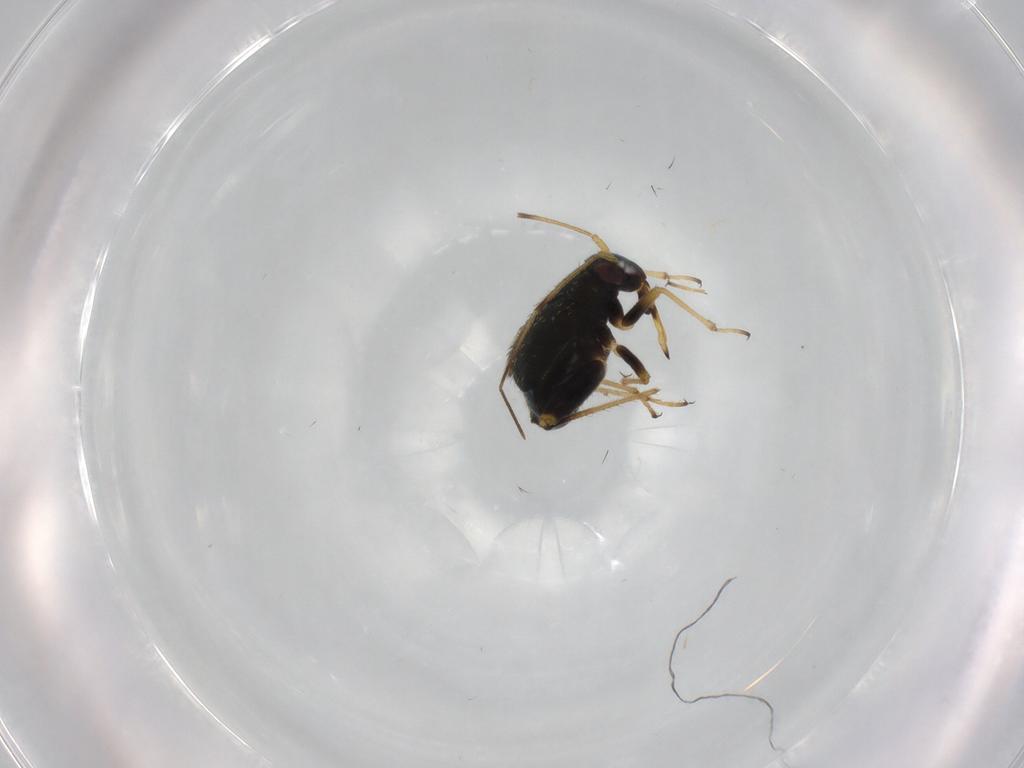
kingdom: Animalia
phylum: Arthropoda
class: Insecta
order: Hemiptera
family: Miridae
